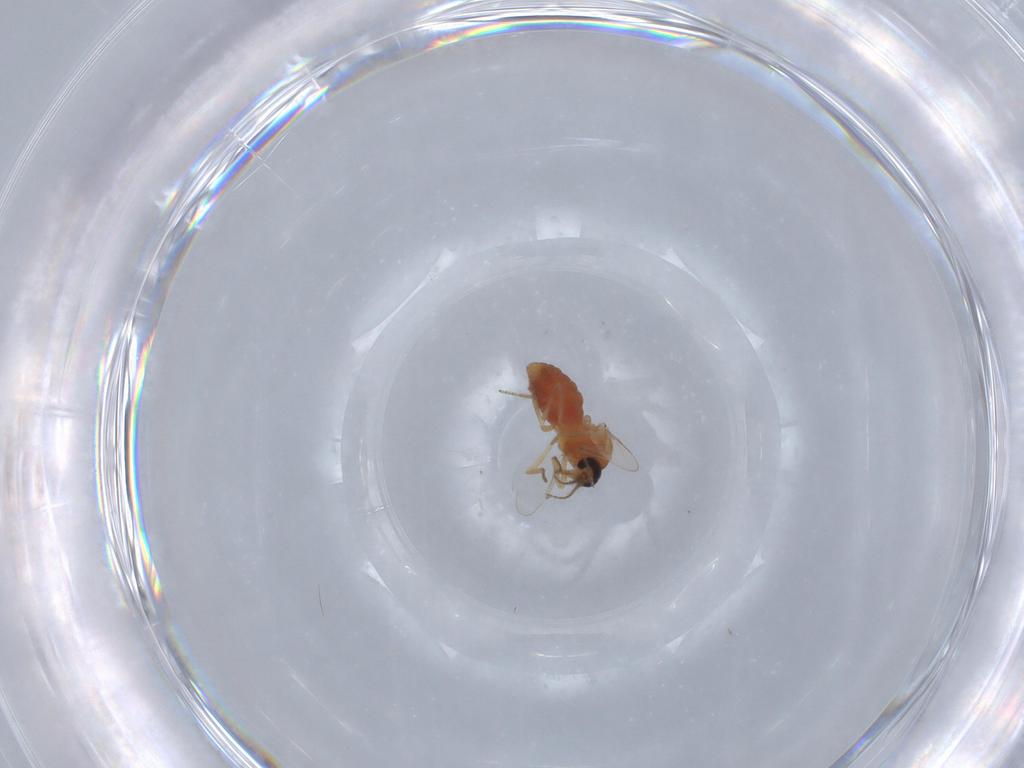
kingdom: Animalia
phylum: Arthropoda
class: Insecta
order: Diptera
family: Ceratopogonidae
